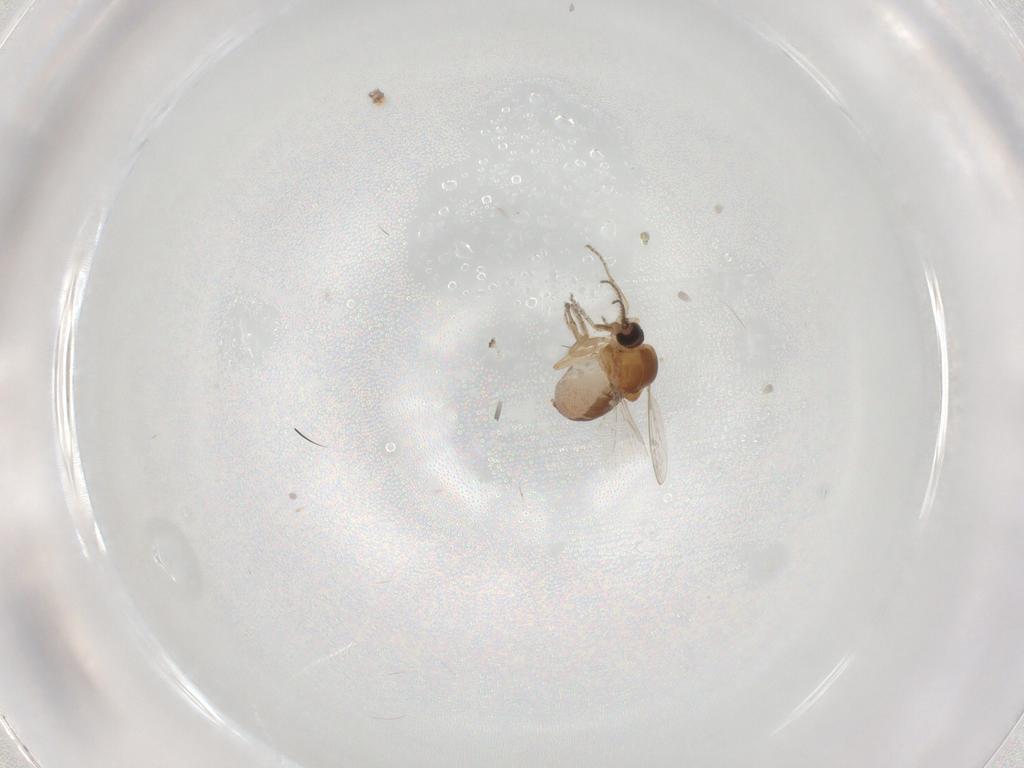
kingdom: Animalia
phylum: Arthropoda
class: Insecta
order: Diptera
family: Ceratopogonidae
